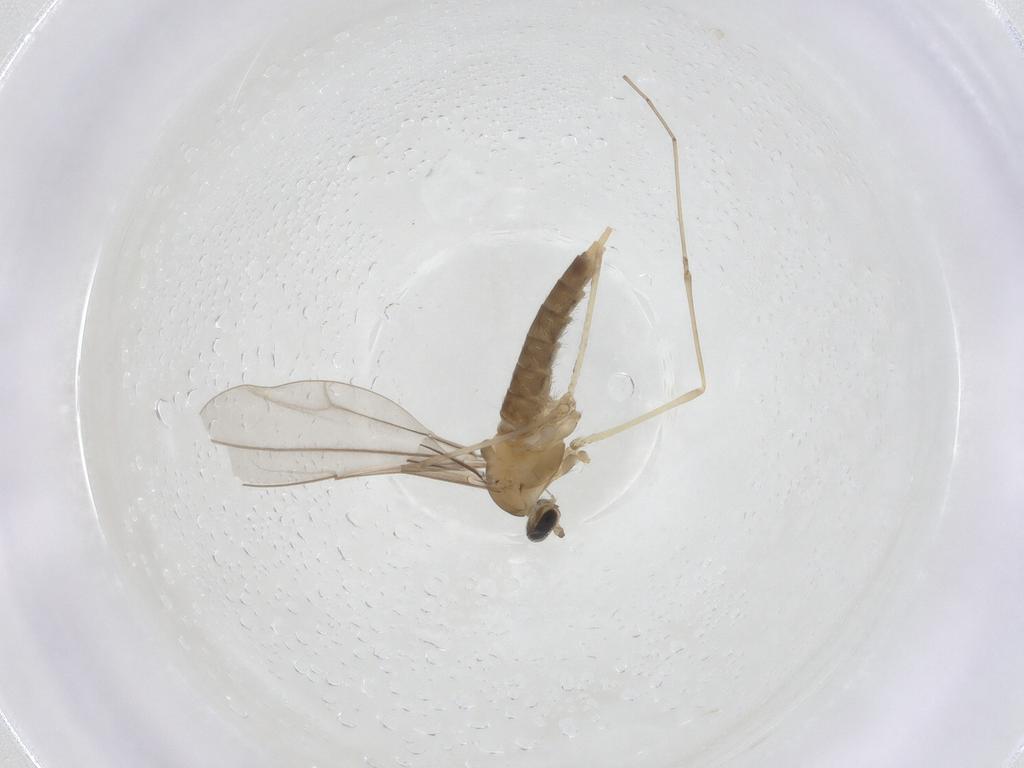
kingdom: Animalia
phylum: Arthropoda
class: Insecta
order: Diptera
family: Cecidomyiidae
